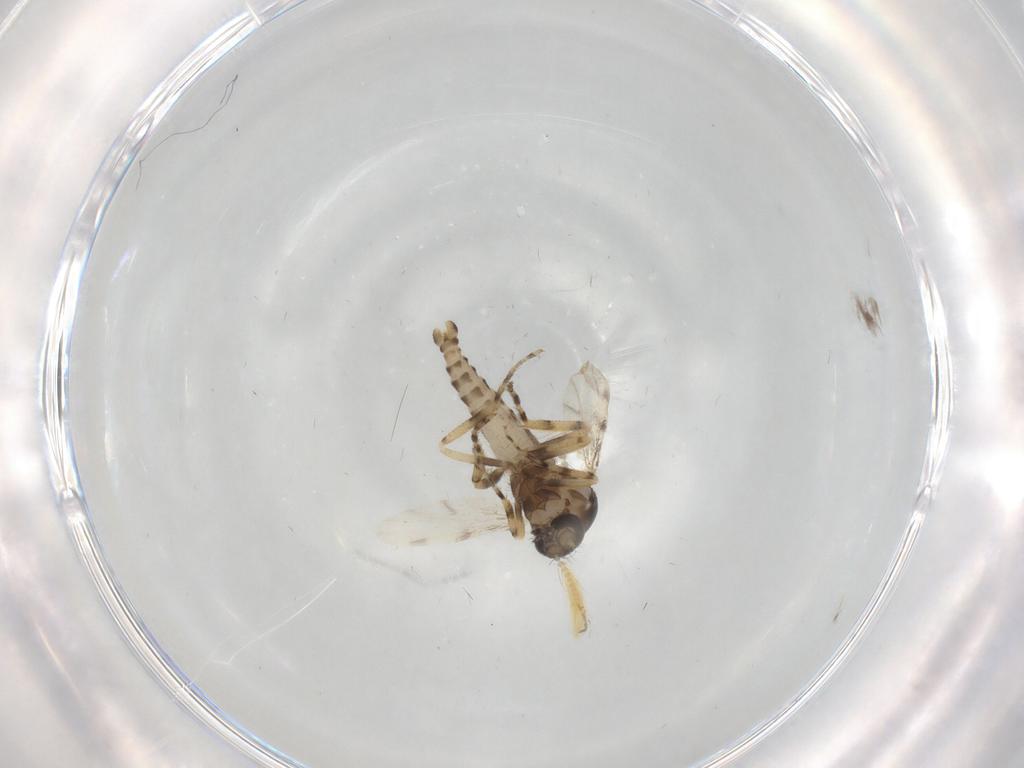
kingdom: Animalia
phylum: Arthropoda
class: Insecta
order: Diptera
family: Ceratopogonidae
